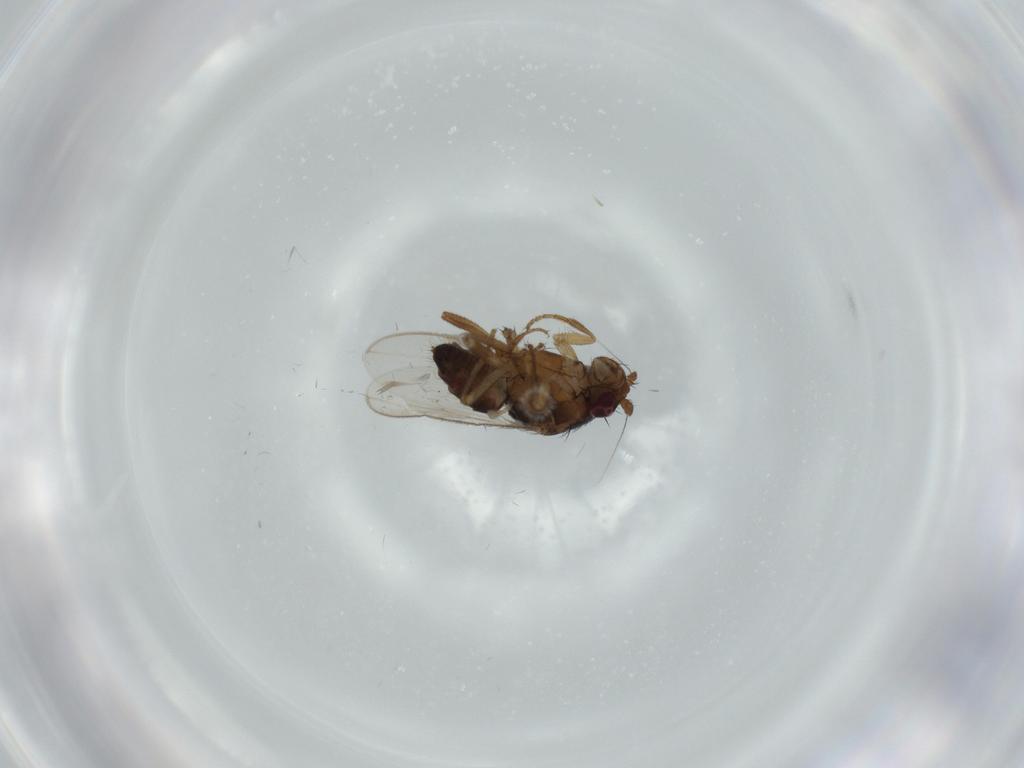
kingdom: Animalia
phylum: Arthropoda
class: Insecta
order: Diptera
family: Sphaeroceridae
